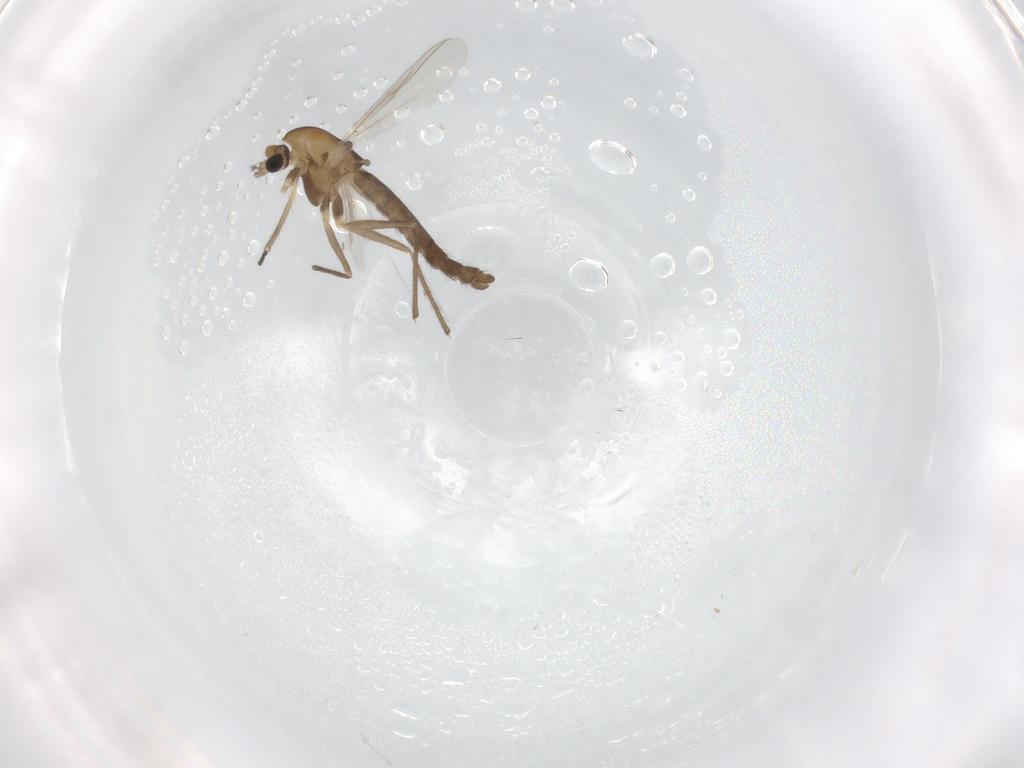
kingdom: Animalia
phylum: Arthropoda
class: Insecta
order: Diptera
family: Chironomidae
